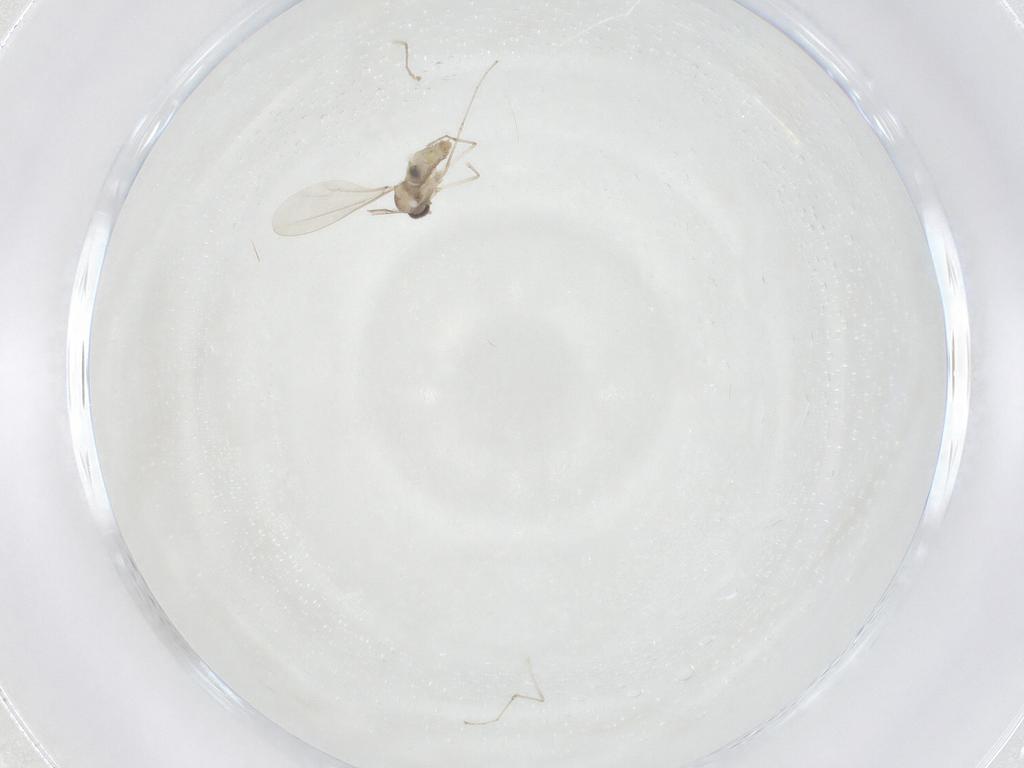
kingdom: Animalia
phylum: Arthropoda
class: Insecta
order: Diptera
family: Cecidomyiidae
